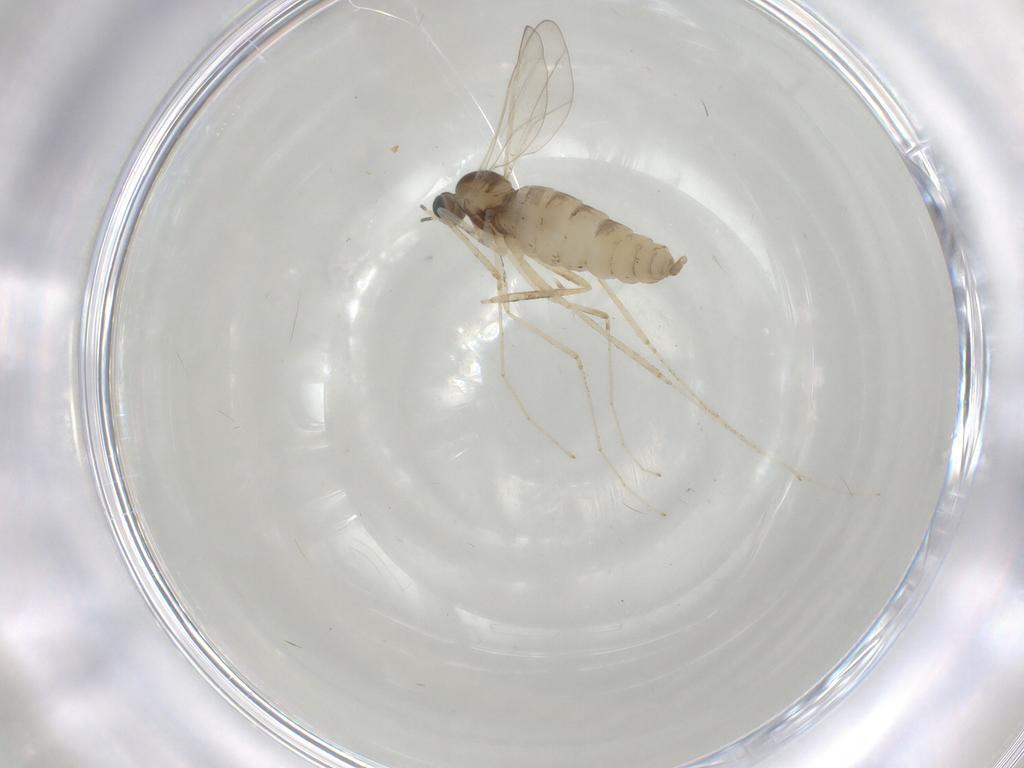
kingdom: Animalia
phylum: Arthropoda
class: Insecta
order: Diptera
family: Cecidomyiidae
